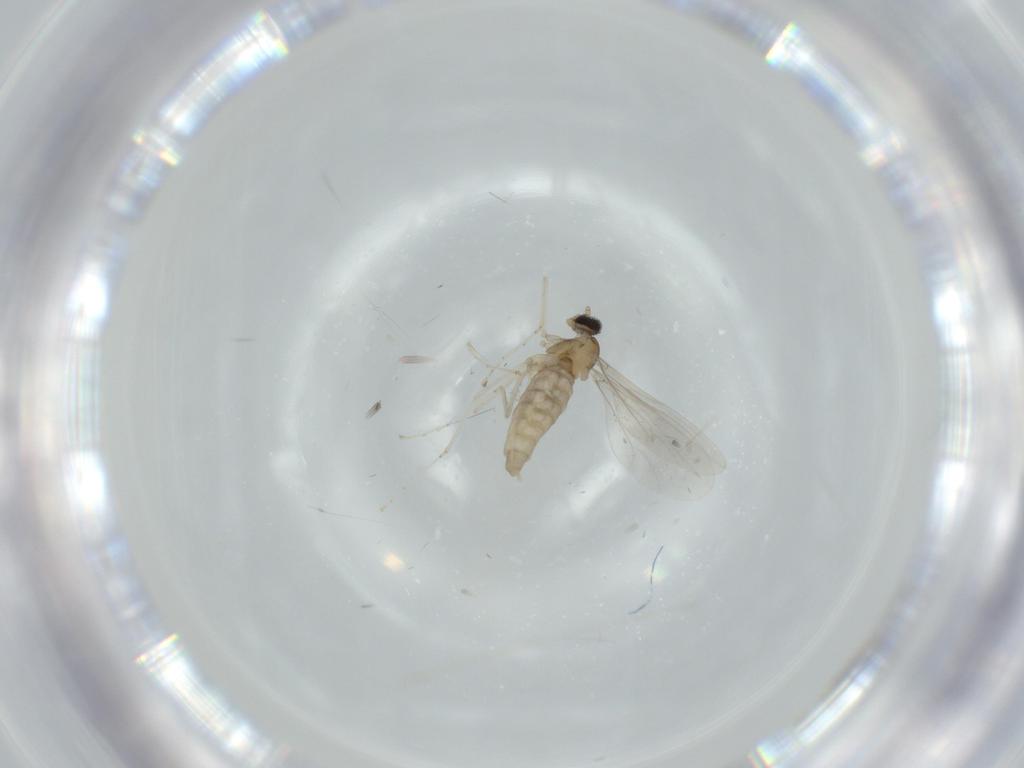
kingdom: Animalia
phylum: Arthropoda
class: Insecta
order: Diptera
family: Cecidomyiidae
